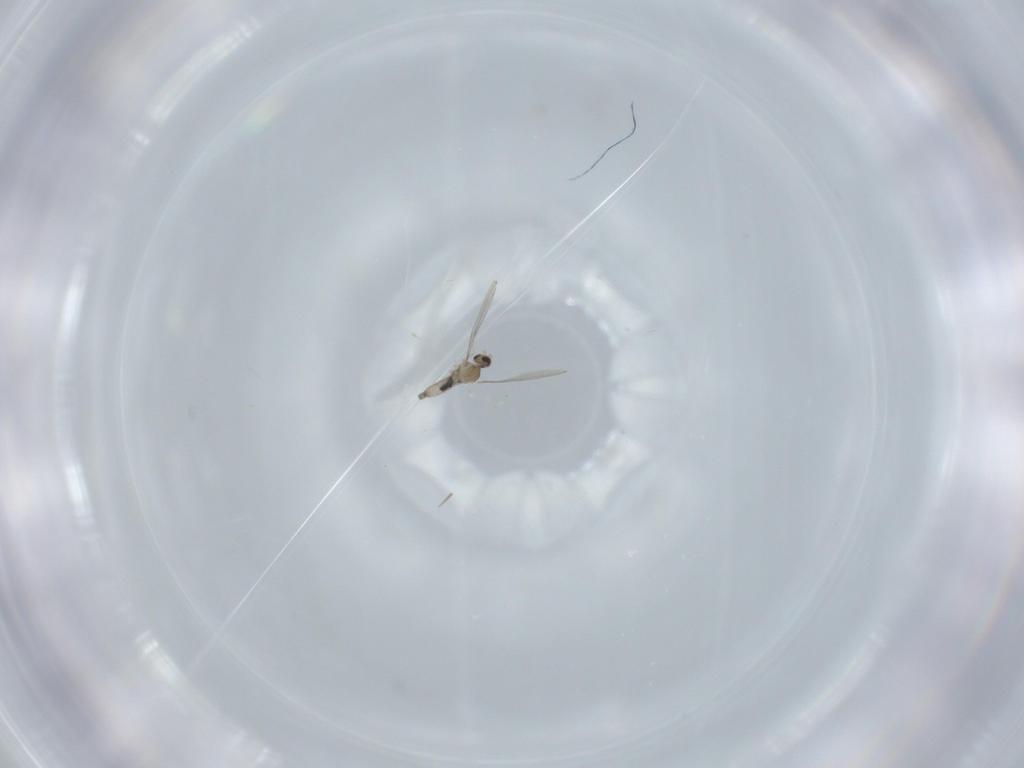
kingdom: Animalia
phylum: Arthropoda
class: Insecta
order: Diptera
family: Cecidomyiidae
